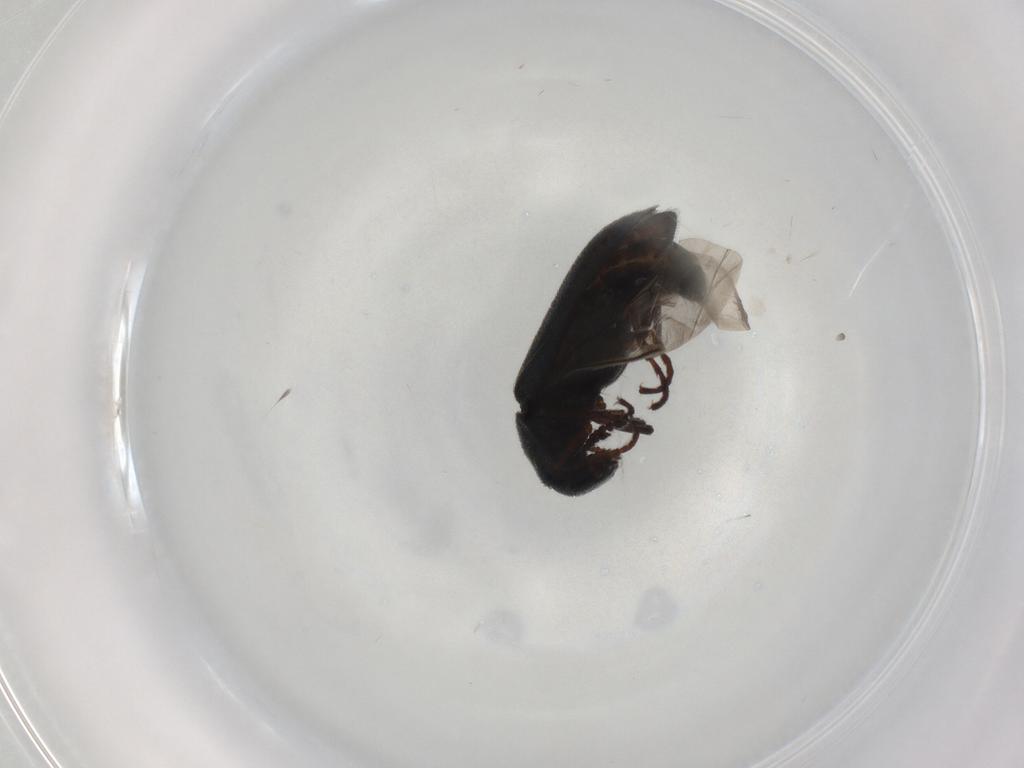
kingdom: Animalia
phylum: Arthropoda
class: Insecta
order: Coleoptera
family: Melyridae
